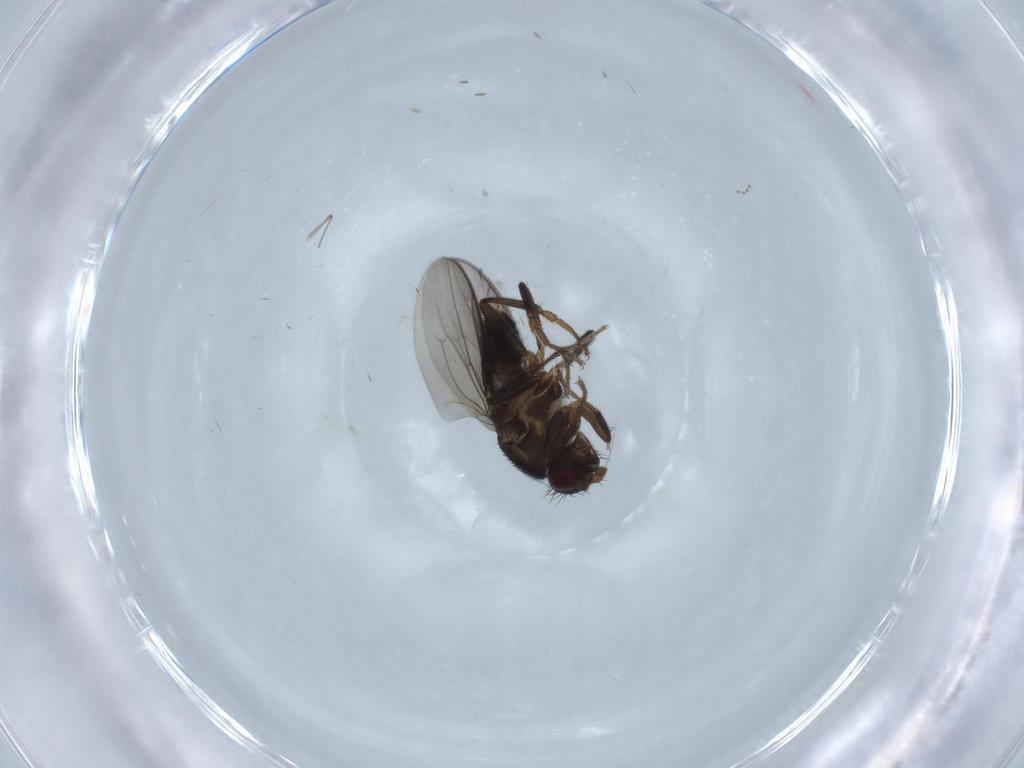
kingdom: Animalia
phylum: Arthropoda
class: Insecta
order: Diptera
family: Sphaeroceridae
